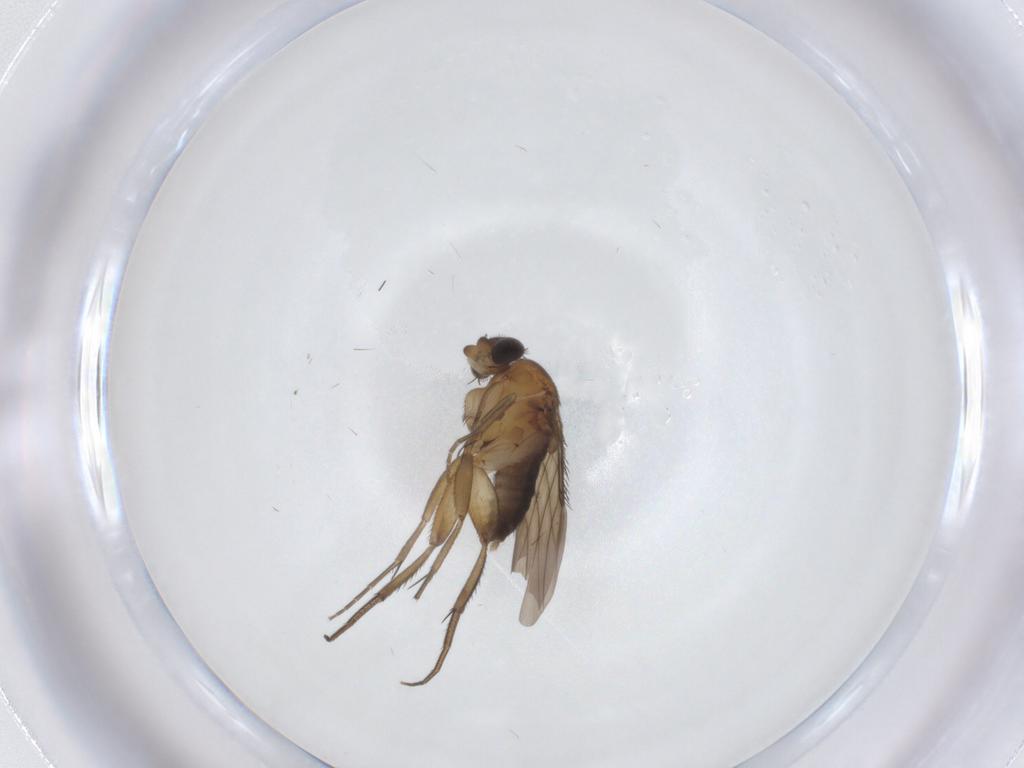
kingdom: Animalia
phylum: Arthropoda
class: Insecta
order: Diptera
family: Phoridae
